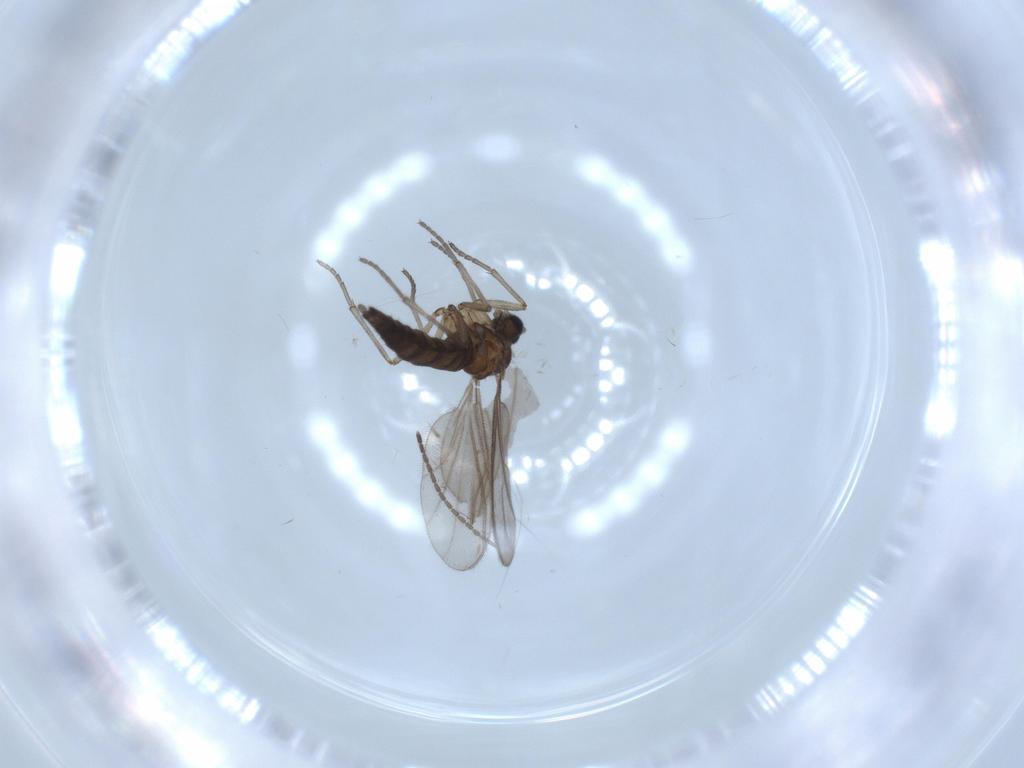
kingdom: Animalia
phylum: Arthropoda
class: Insecta
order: Diptera
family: Sciaridae
